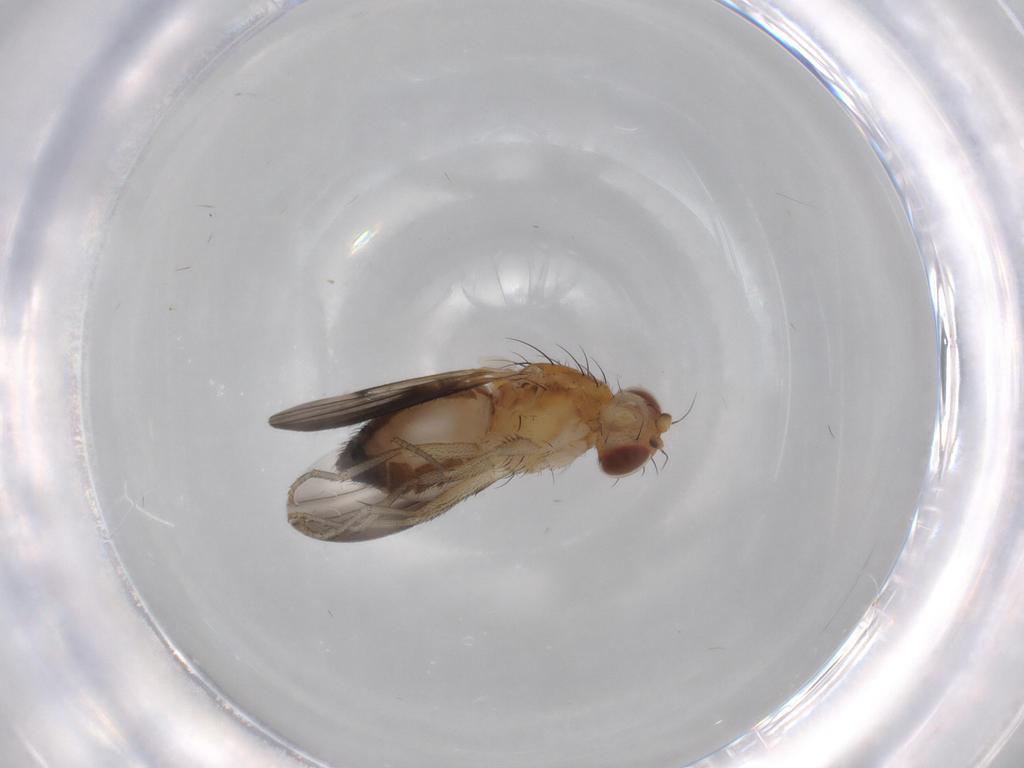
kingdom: Animalia
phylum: Arthropoda
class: Insecta
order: Diptera
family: Heleomyzidae
